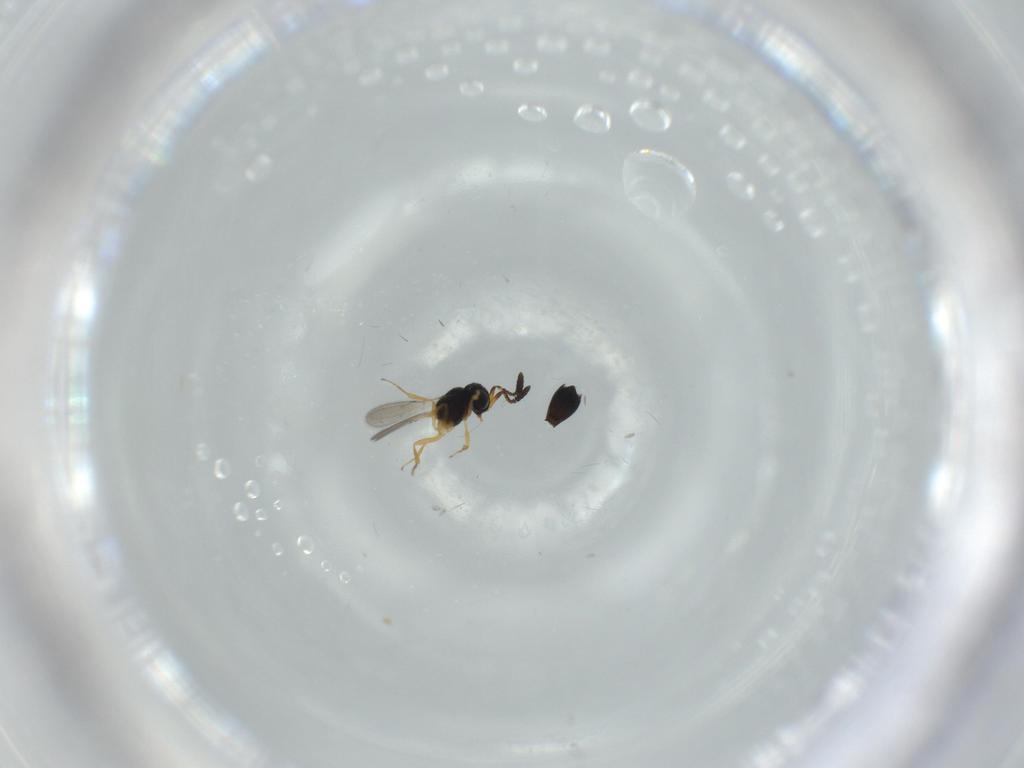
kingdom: Animalia
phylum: Arthropoda
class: Insecta
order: Hymenoptera
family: Scelionidae
